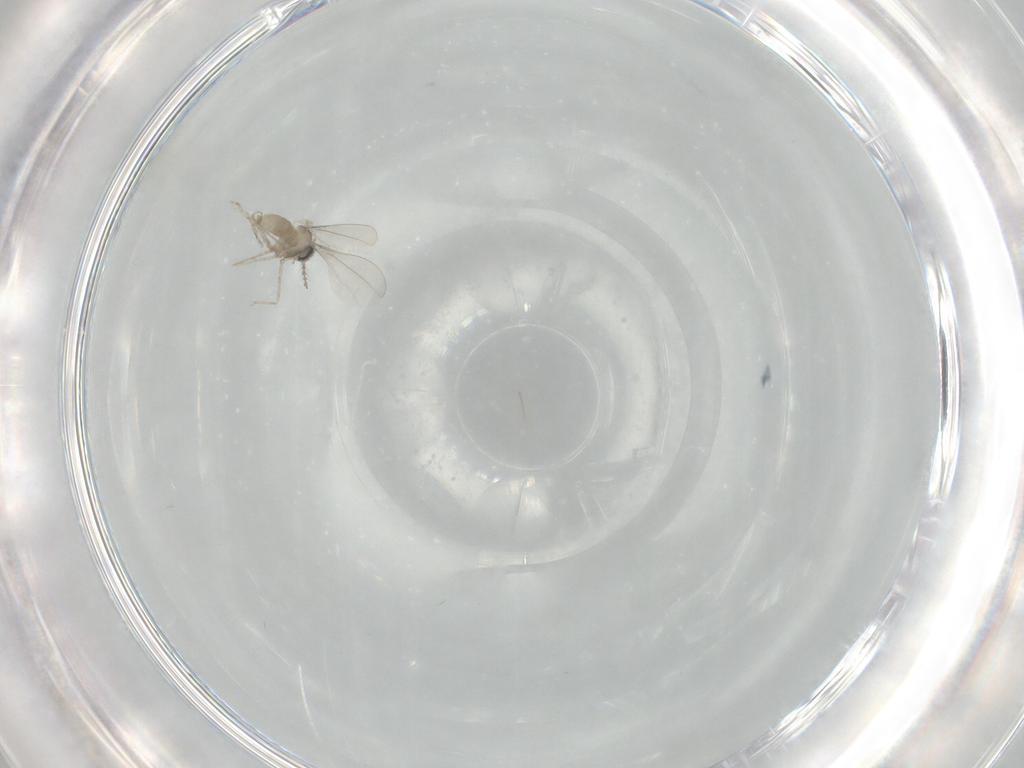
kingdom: Animalia
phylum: Arthropoda
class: Insecta
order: Diptera
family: Cecidomyiidae
